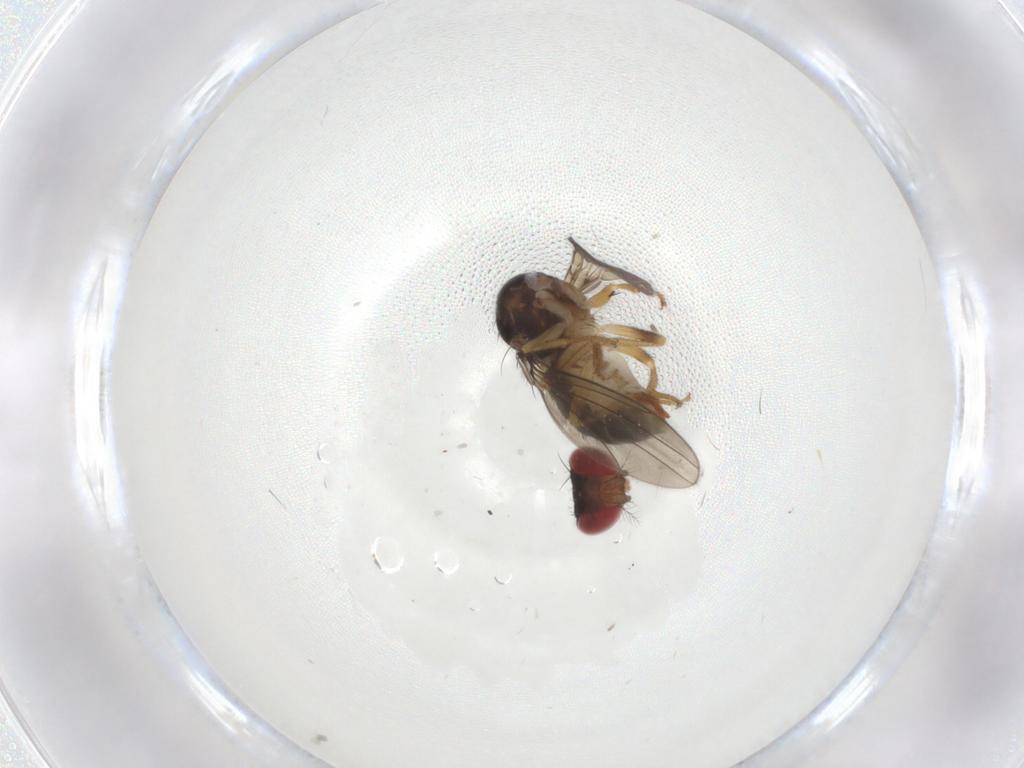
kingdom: Animalia
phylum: Arthropoda
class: Insecta
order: Diptera
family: Drosophilidae
